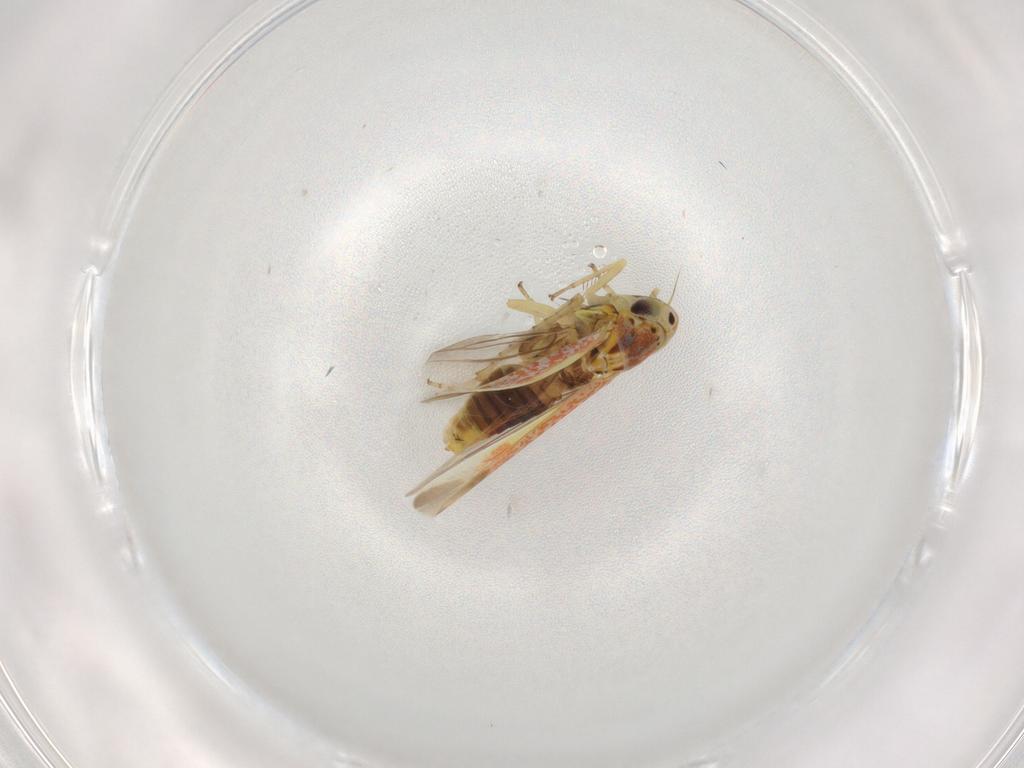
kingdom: Animalia
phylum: Arthropoda
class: Insecta
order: Hemiptera
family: Cicadellidae
